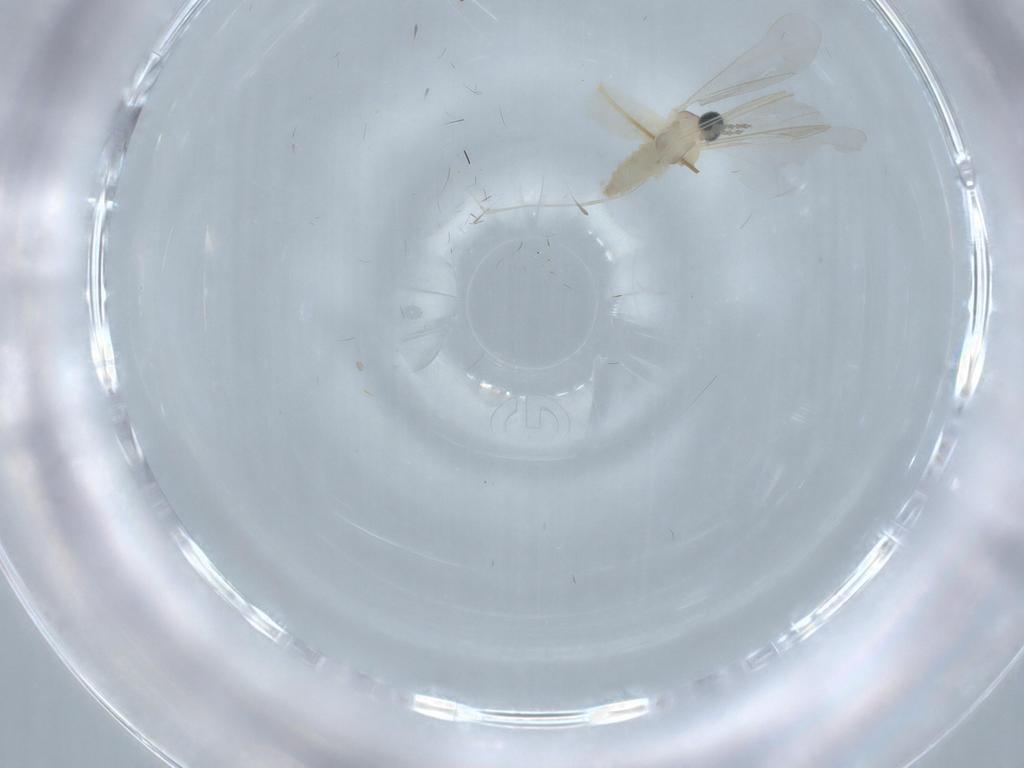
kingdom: Animalia
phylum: Arthropoda
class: Insecta
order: Diptera
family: Cecidomyiidae
